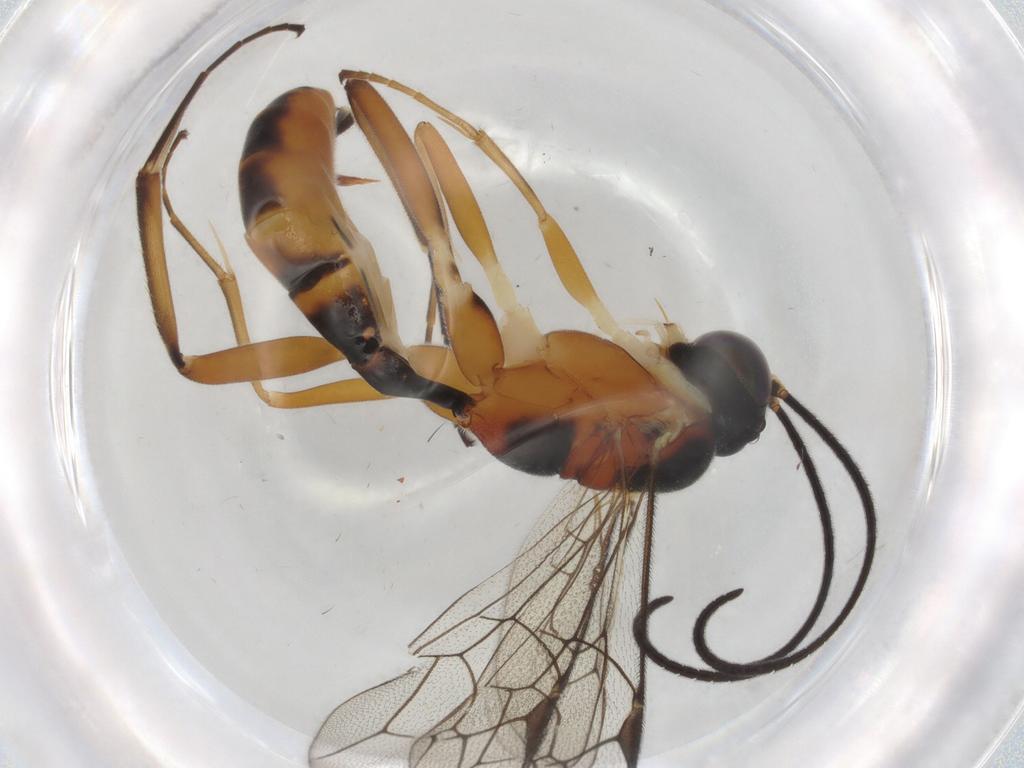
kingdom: Animalia
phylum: Arthropoda
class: Insecta
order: Hymenoptera
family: Ichneumonidae
